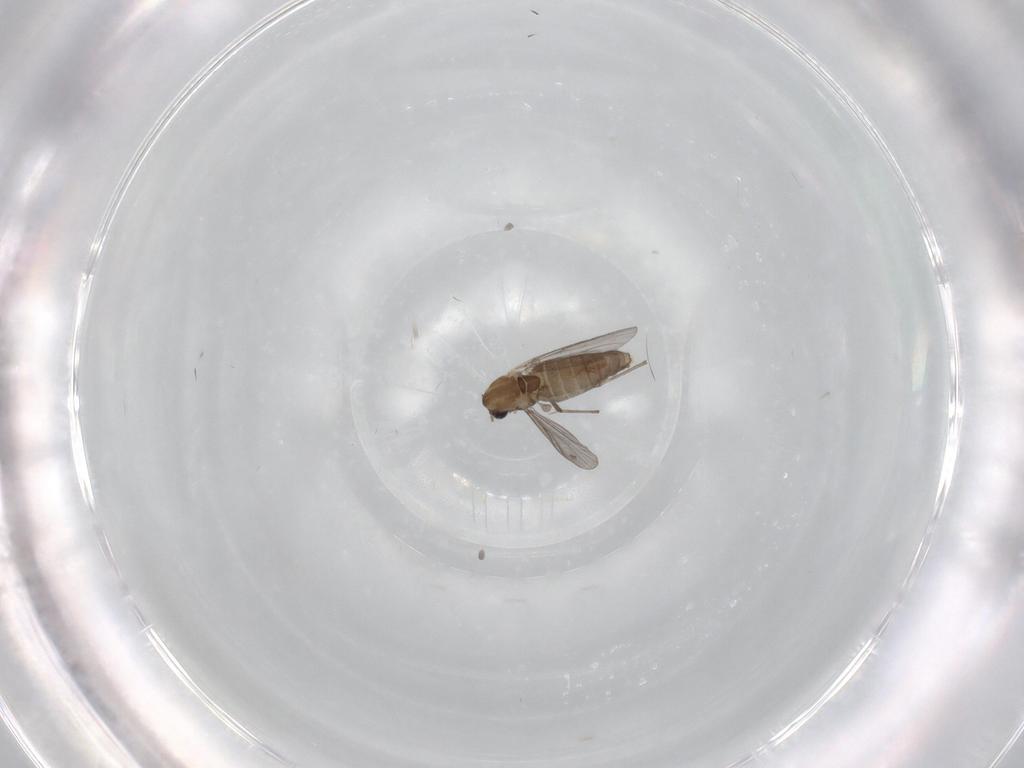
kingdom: Animalia
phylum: Arthropoda
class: Insecta
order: Diptera
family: Chironomidae
